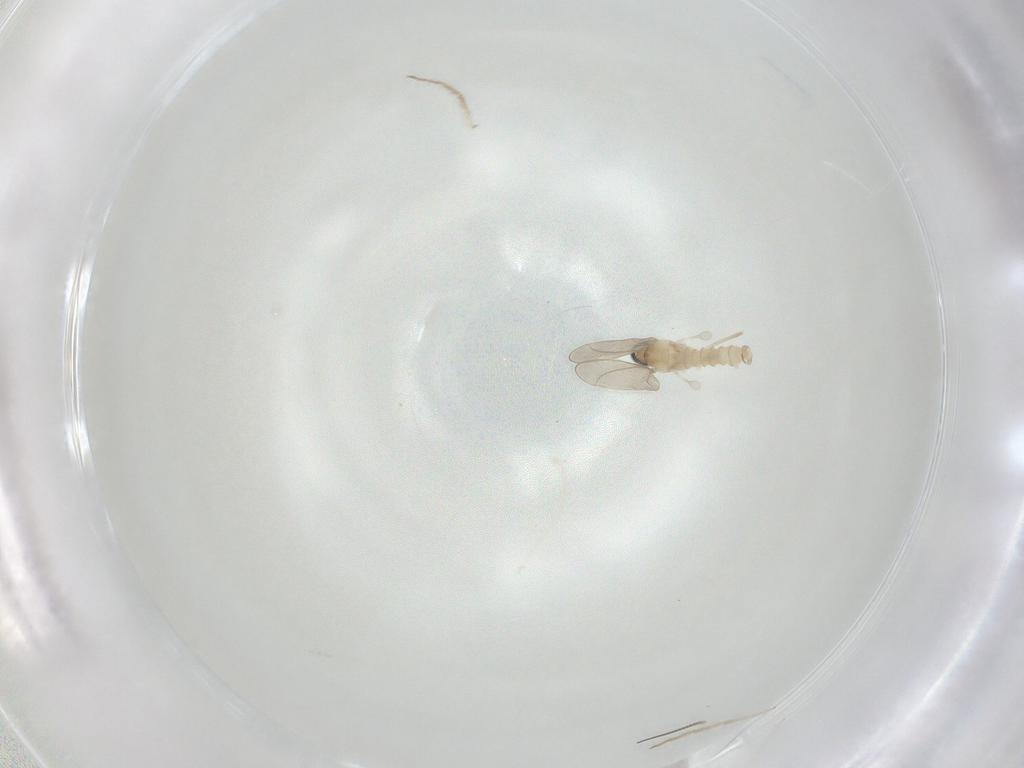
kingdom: Animalia
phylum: Arthropoda
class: Insecta
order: Diptera
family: Cecidomyiidae
